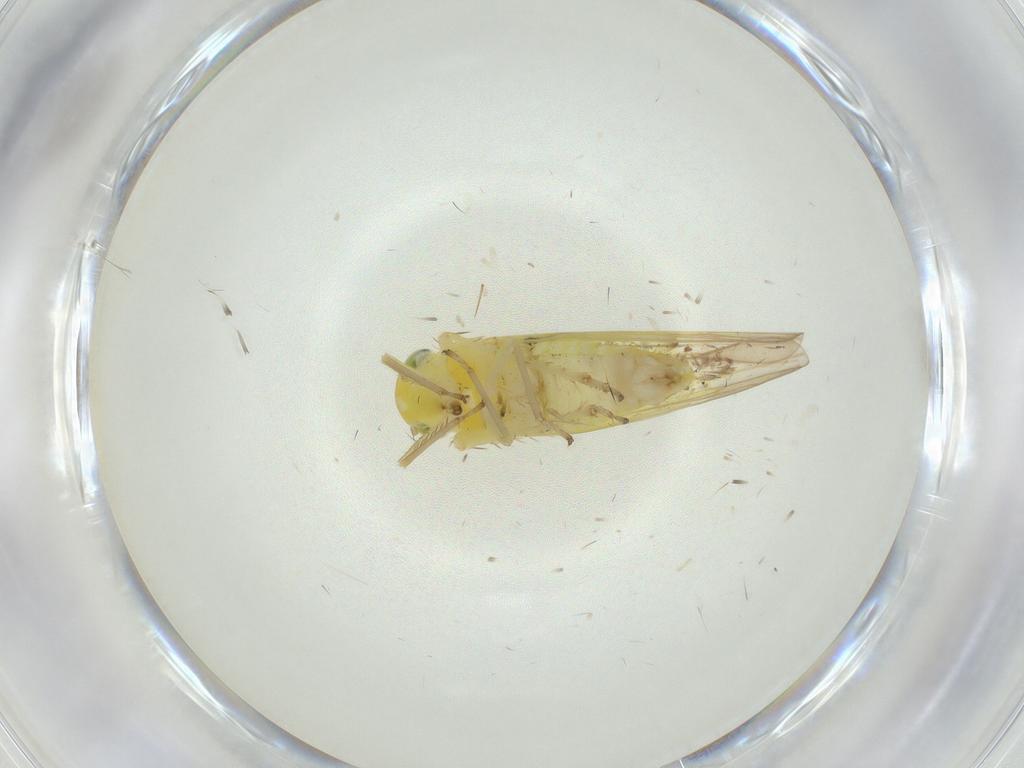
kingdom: Animalia
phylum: Arthropoda
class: Insecta
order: Hemiptera
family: Cicadellidae
